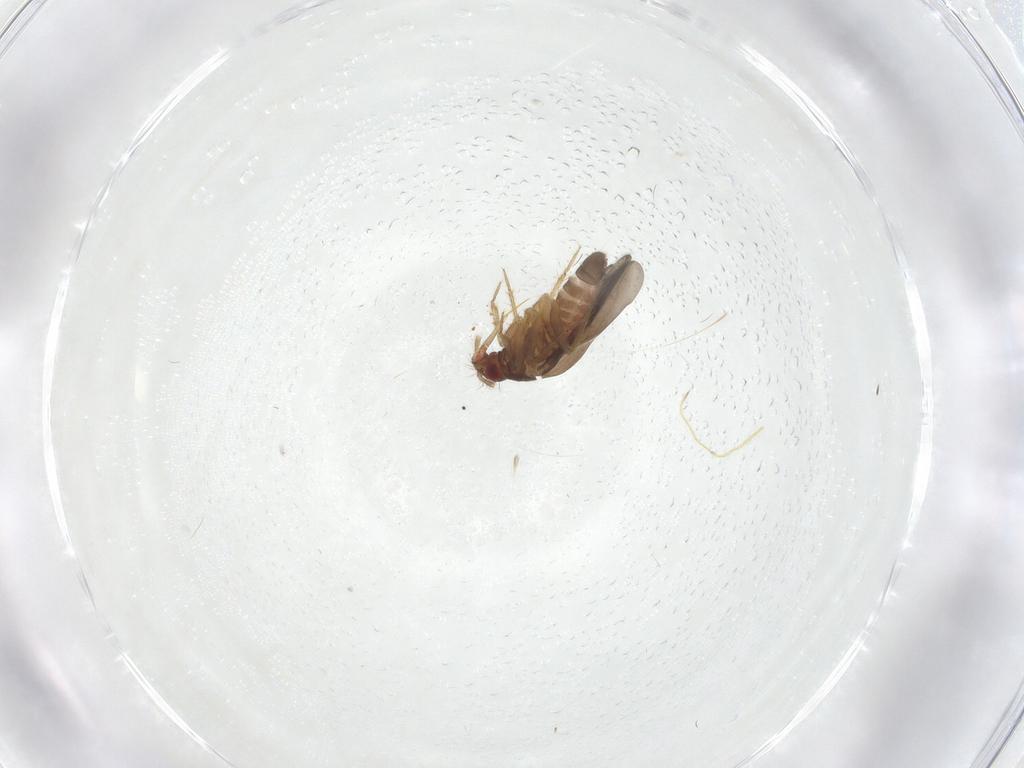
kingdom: Animalia
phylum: Arthropoda
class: Insecta
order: Hemiptera
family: Ceratocombidae
